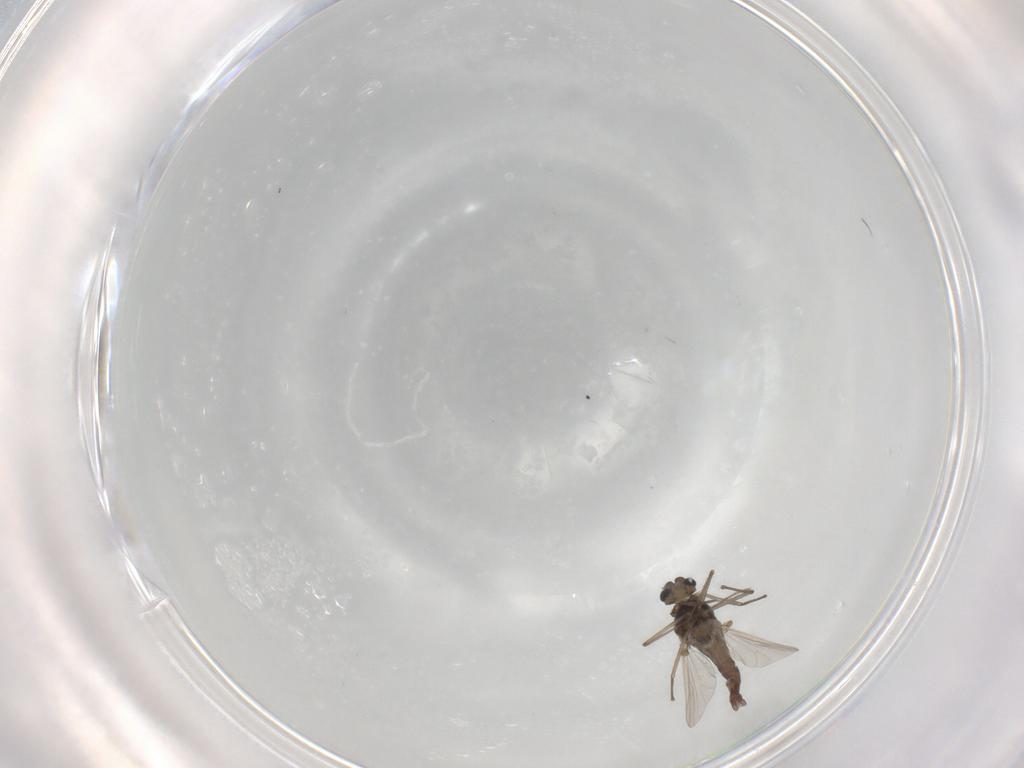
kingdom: Animalia
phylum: Arthropoda
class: Insecta
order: Diptera
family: Chironomidae
